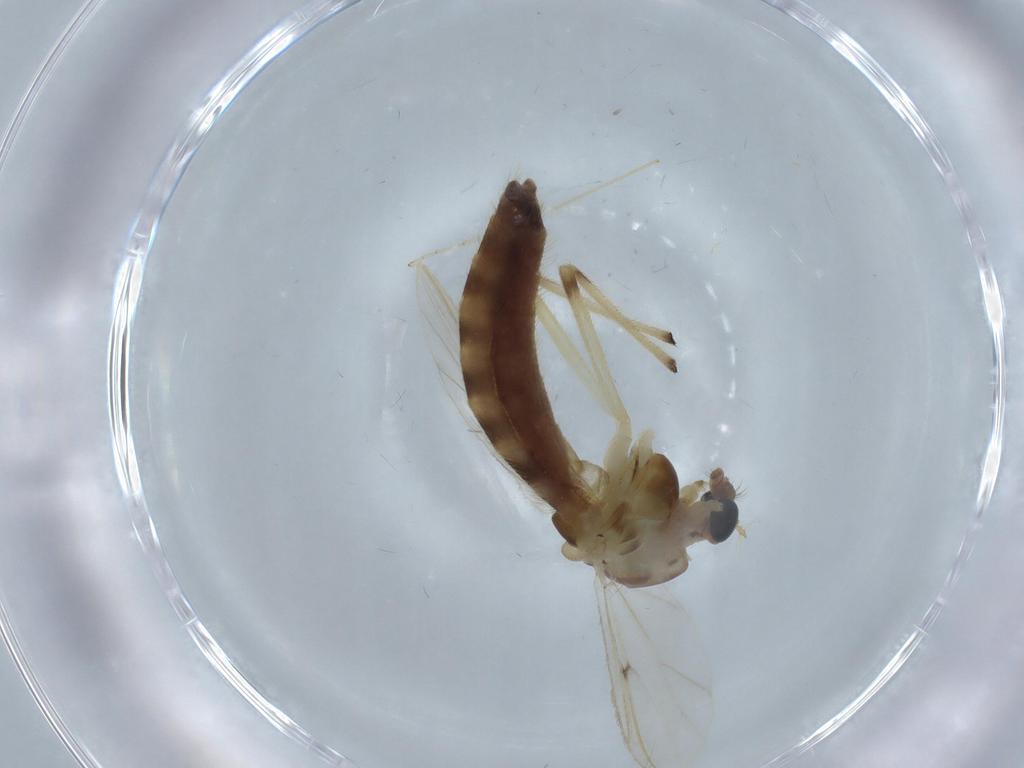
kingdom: Animalia
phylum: Arthropoda
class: Insecta
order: Diptera
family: Chironomidae
